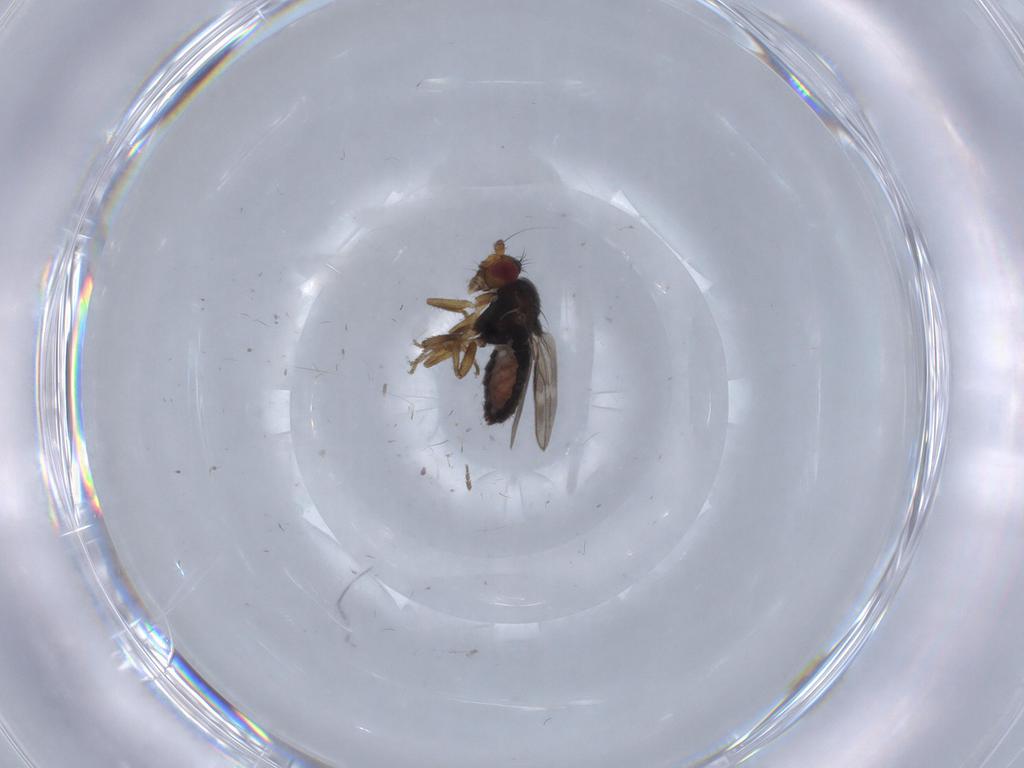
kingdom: Animalia
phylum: Arthropoda
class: Insecta
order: Diptera
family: Sphaeroceridae
